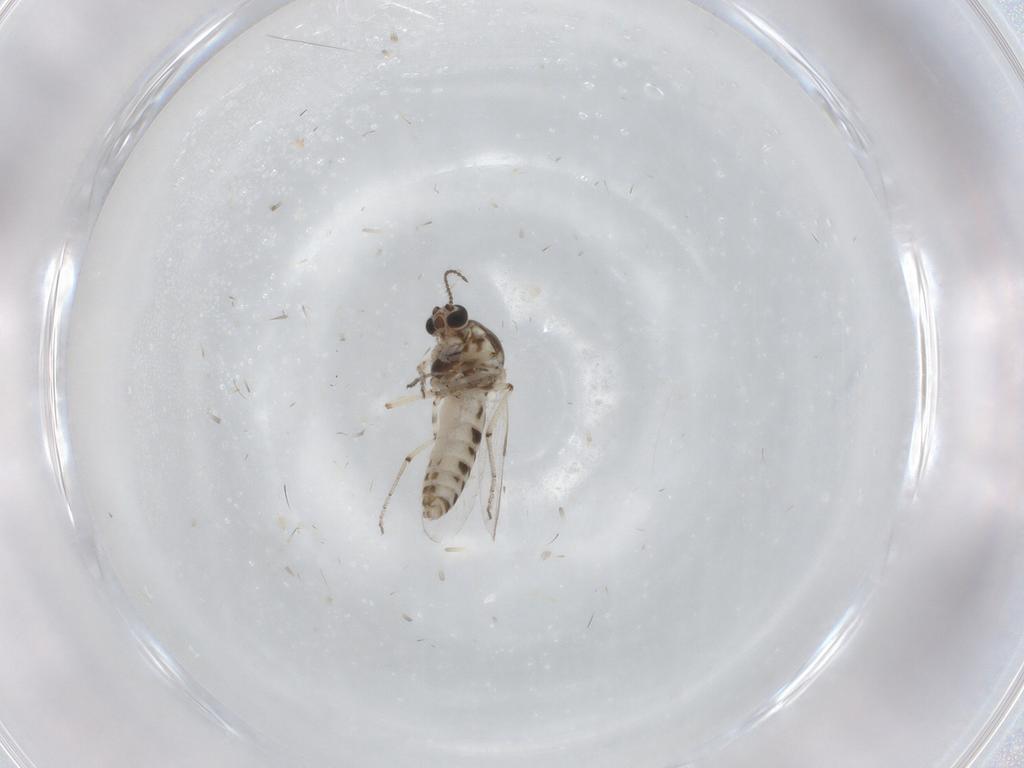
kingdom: Animalia
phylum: Arthropoda
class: Insecta
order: Diptera
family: Ceratopogonidae
